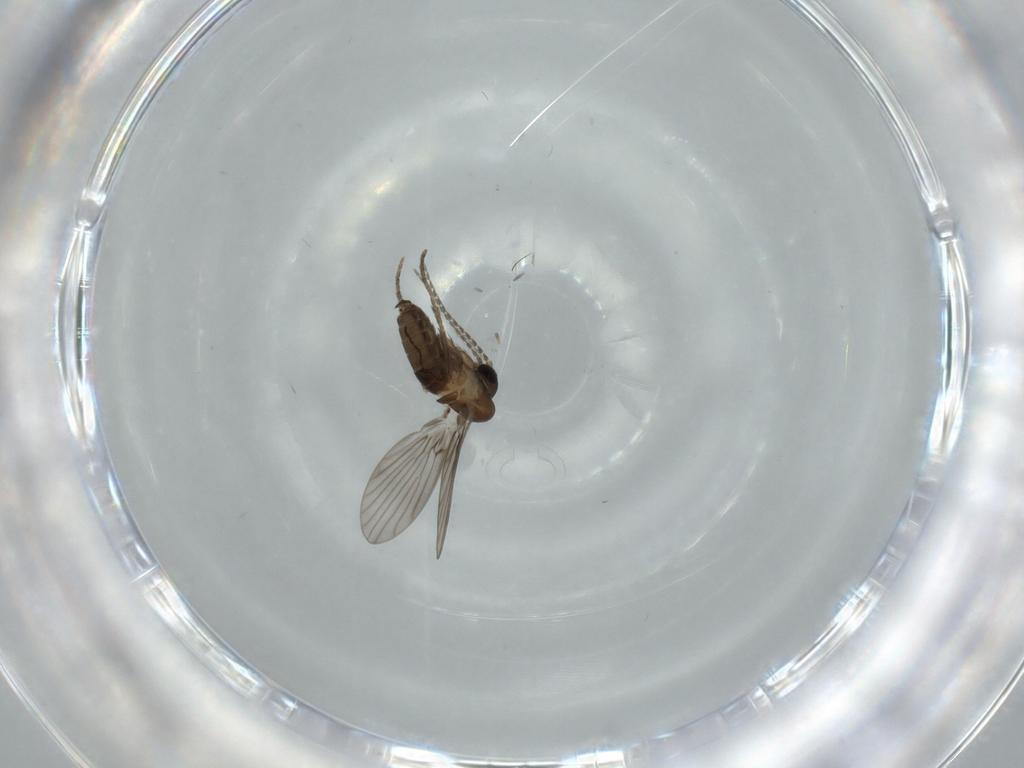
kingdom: Animalia
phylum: Arthropoda
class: Insecta
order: Diptera
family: Psychodidae
